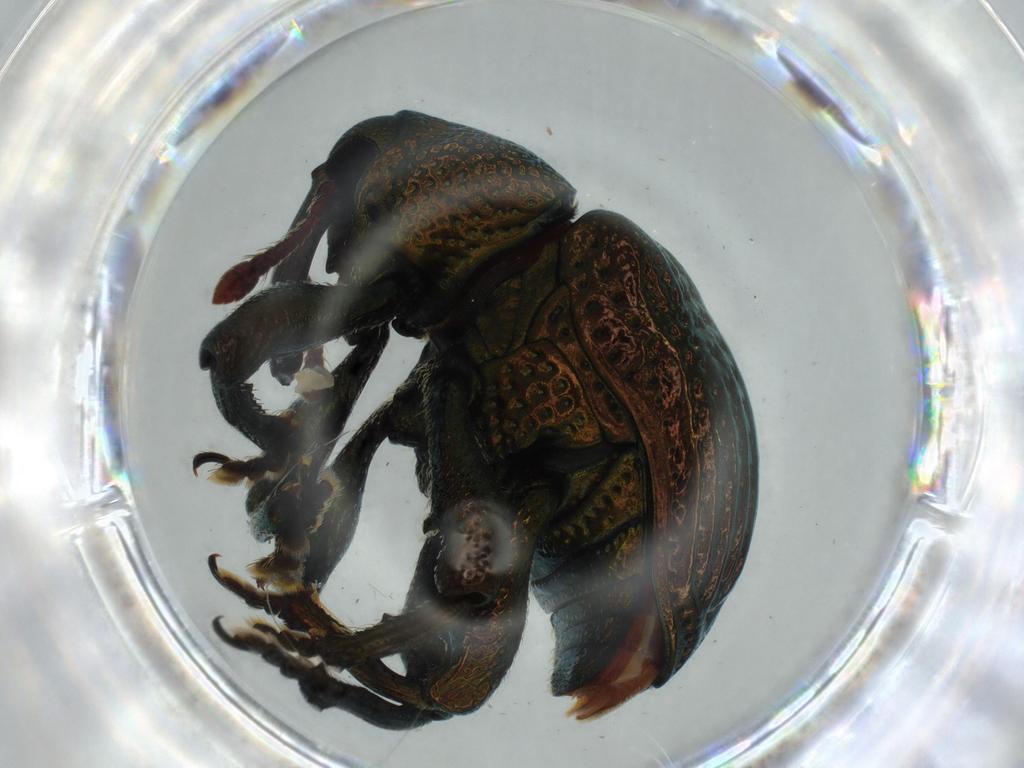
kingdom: Animalia
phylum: Arthropoda
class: Insecta
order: Coleoptera
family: Curculionidae
